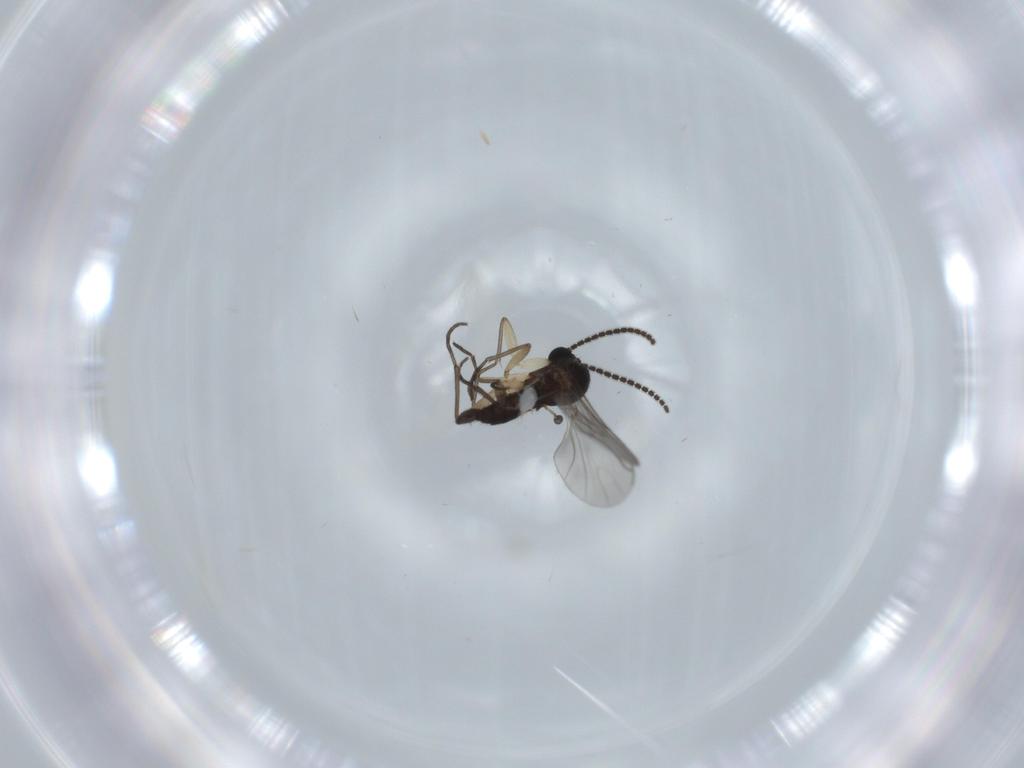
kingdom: Animalia
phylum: Arthropoda
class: Insecta
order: Diptera
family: Sciaridae
